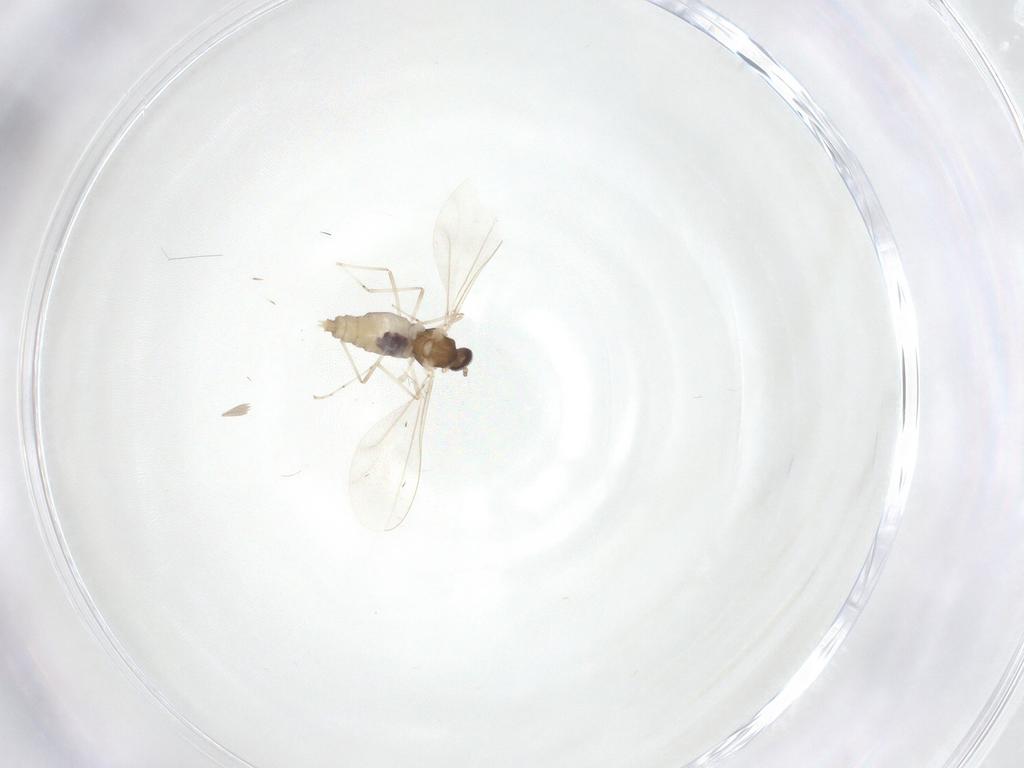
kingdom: Animalia
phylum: Arthropoda
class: Insecta
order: Diptera
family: Cecidomyiidae
